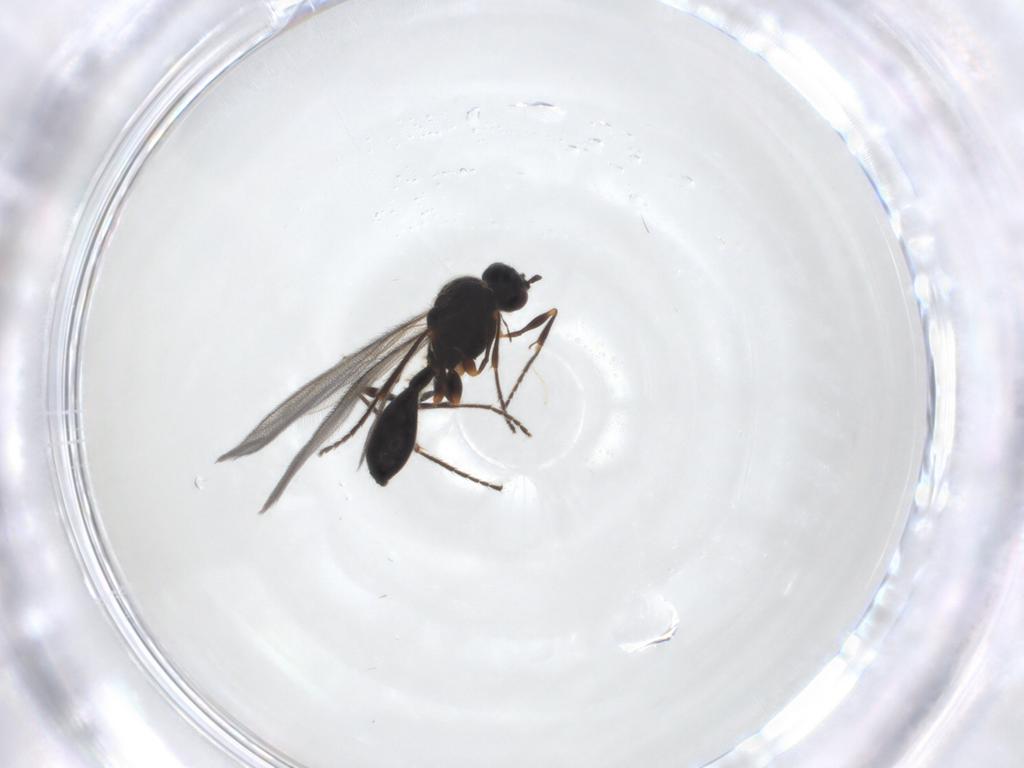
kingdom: Animalia
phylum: Arthropoda
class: Insecta
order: Hymenoptera
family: Diapriidae
